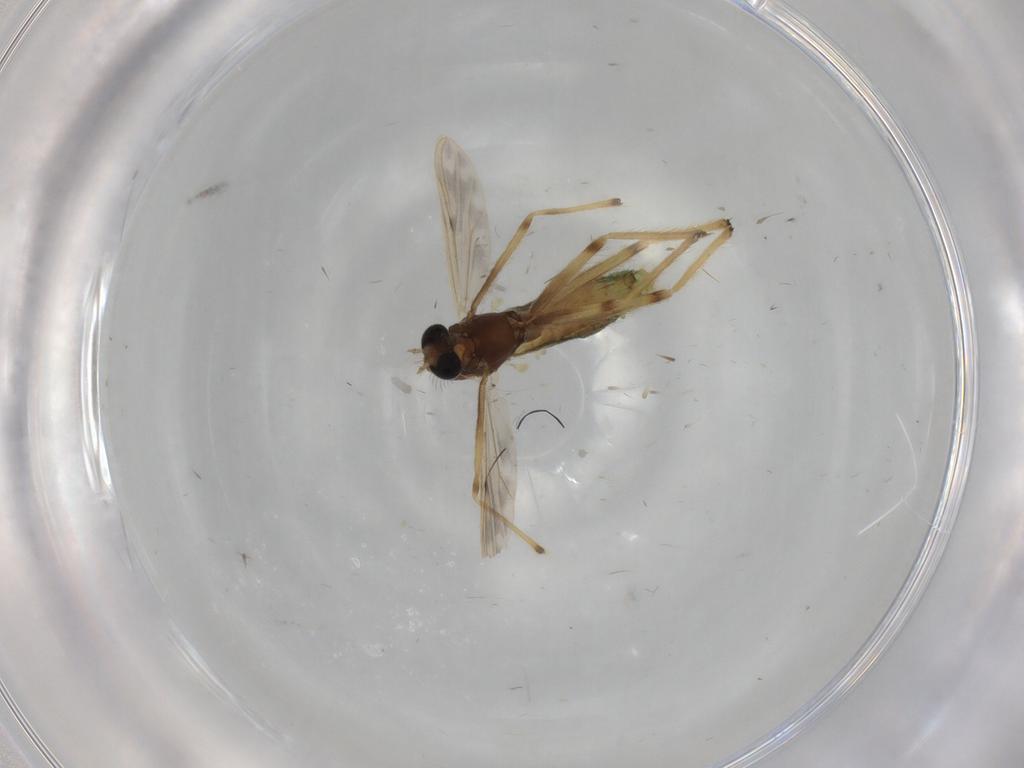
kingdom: Animalia
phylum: Arthropoda
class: Insecta
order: Diptera
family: Chironomidae
